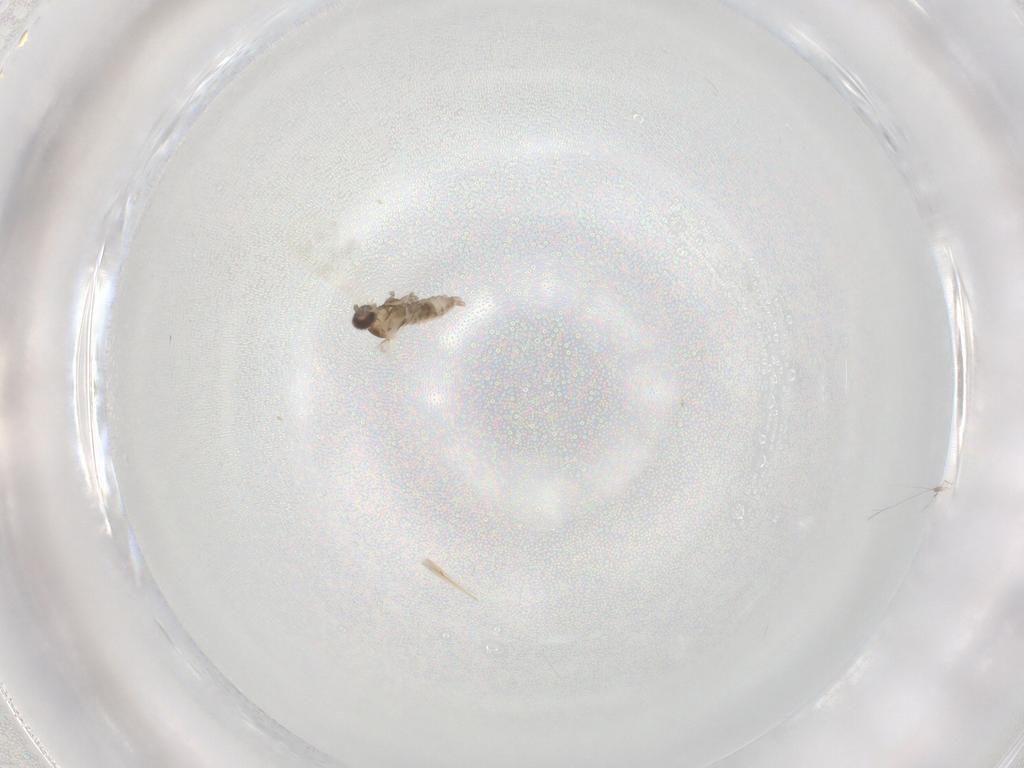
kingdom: Animalia
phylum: Arthropoda
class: Insecta
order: Diptera
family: Cecidomyiidae
